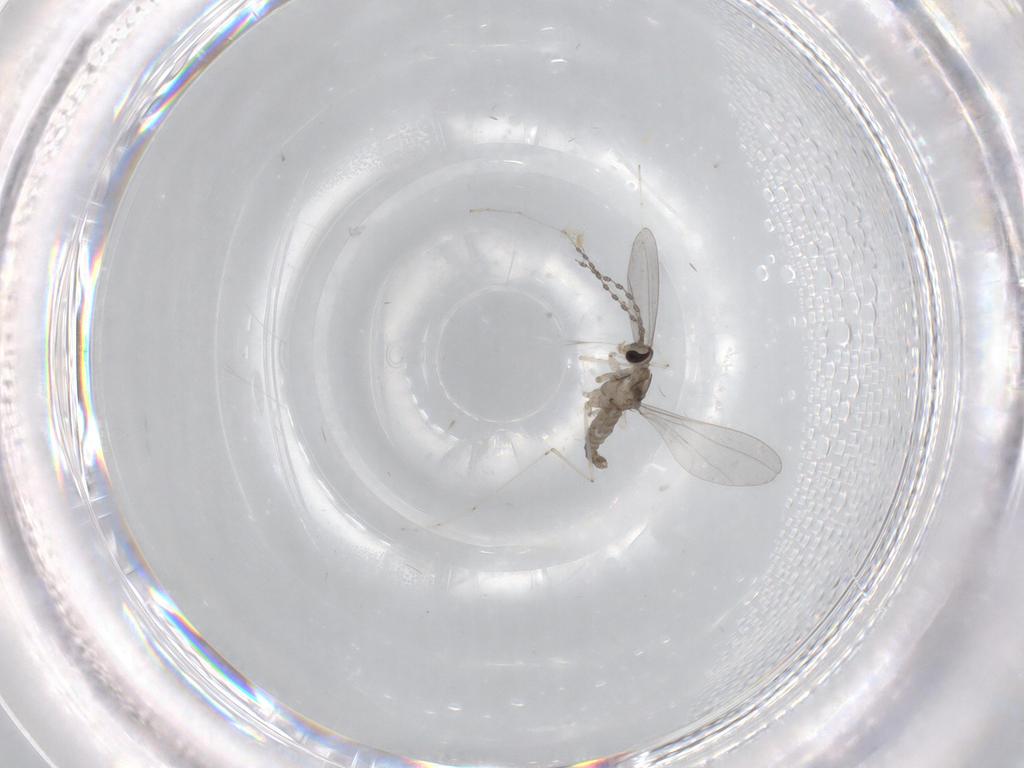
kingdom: Animalia
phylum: Arthropoda
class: Insecta
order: Diptera
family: Cecidomyiidae
